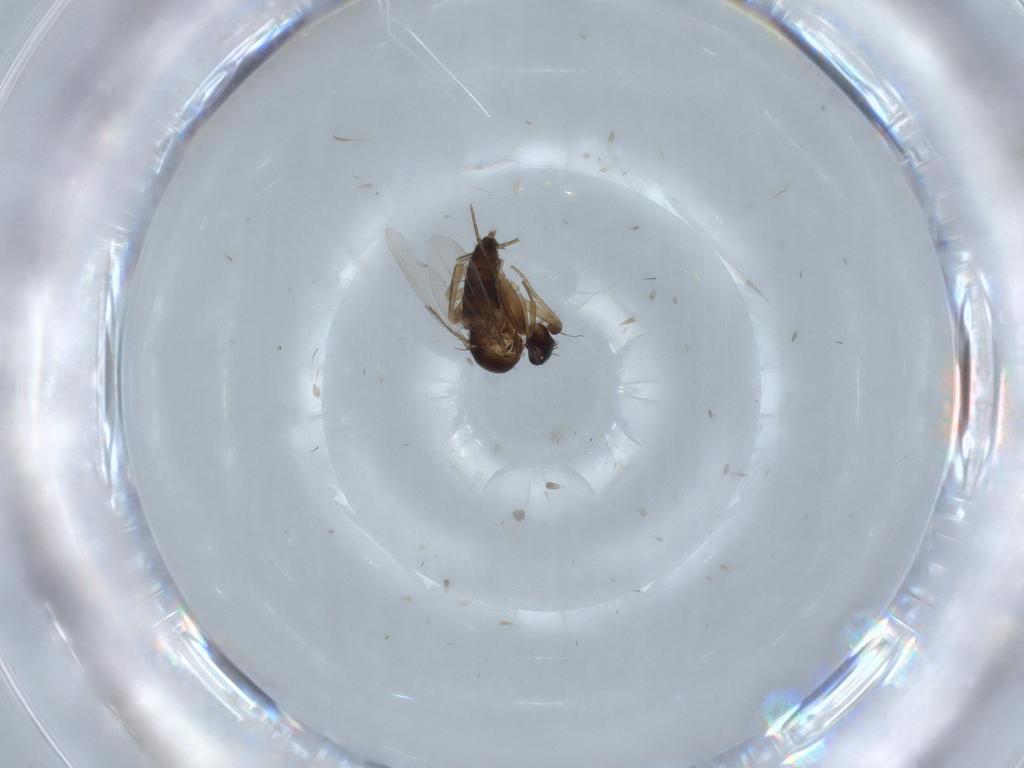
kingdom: Animalia
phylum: Arthropoda
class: Insecta
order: Diptera
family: Phoridae
